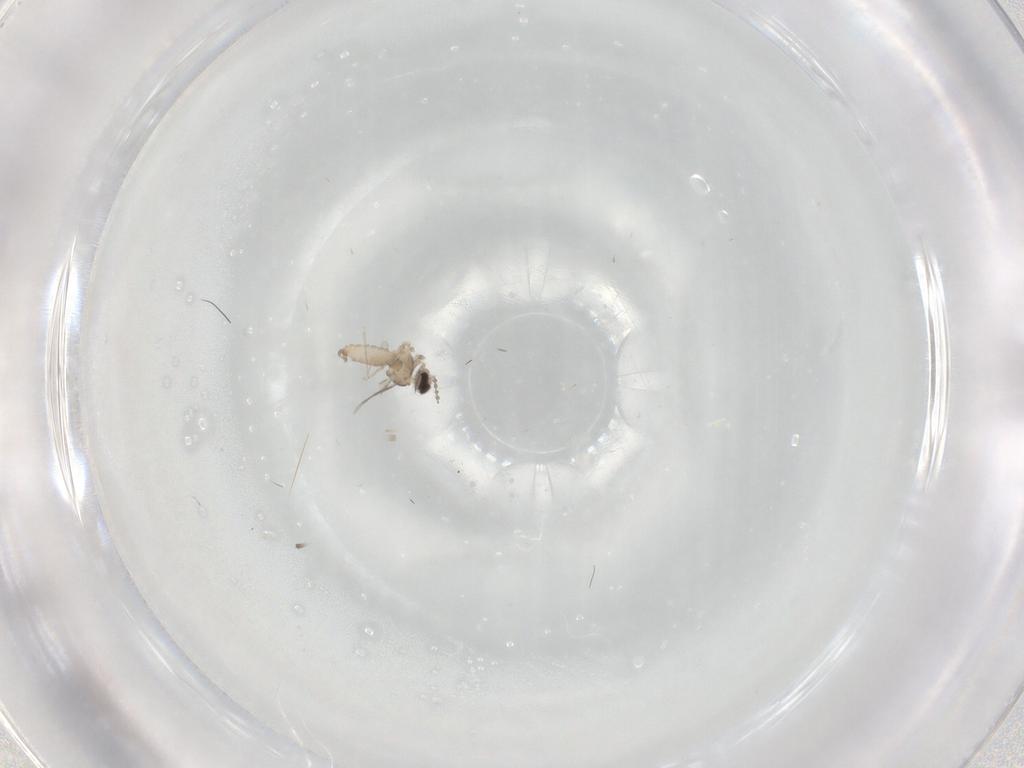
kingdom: Animalia
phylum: Arthropoda
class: Insecta
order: Diptera
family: Cecidomyiidae
